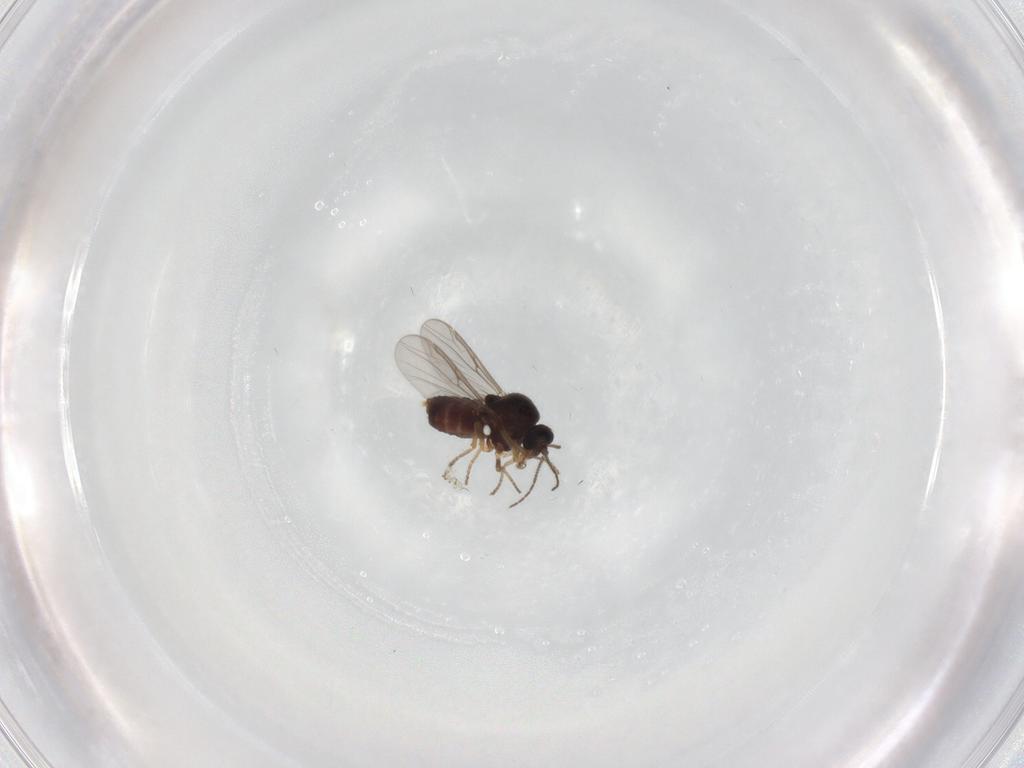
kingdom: Animalia
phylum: Arthropoda
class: Insecta
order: Diptera
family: Ceratopogonidae
